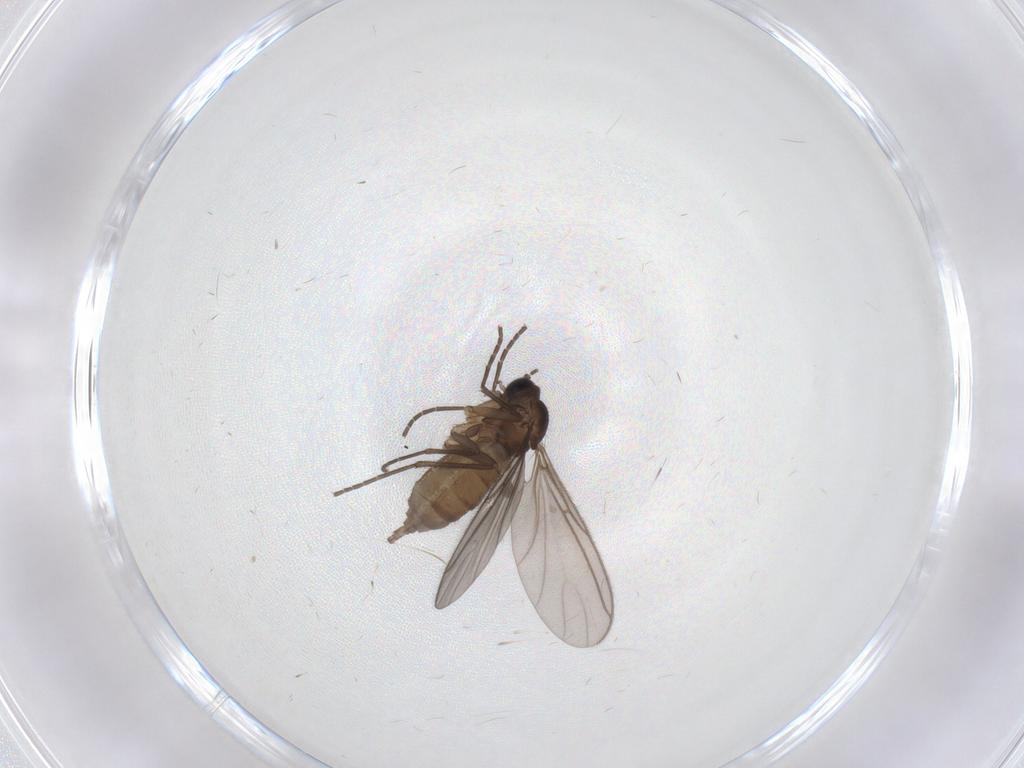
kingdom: Animalia
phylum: Arthropoda
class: Insecta
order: Diptera
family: Sciaridae
